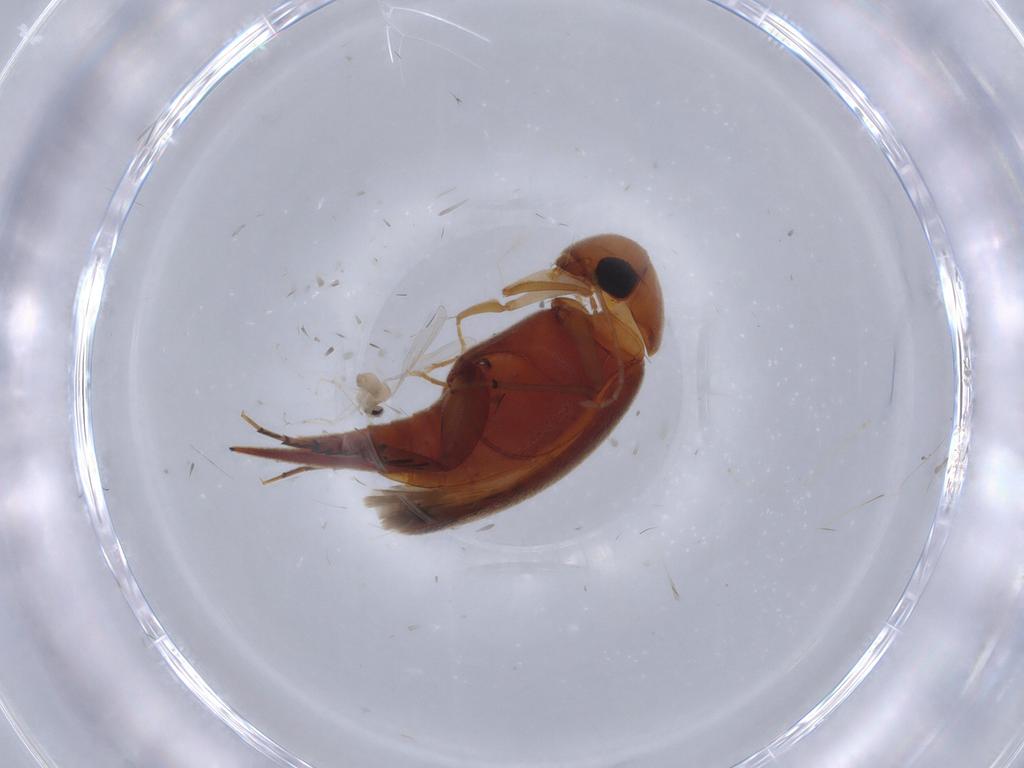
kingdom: Animalia
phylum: Arthropoda
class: Insecta
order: Diptera
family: Cecidomyiidae
